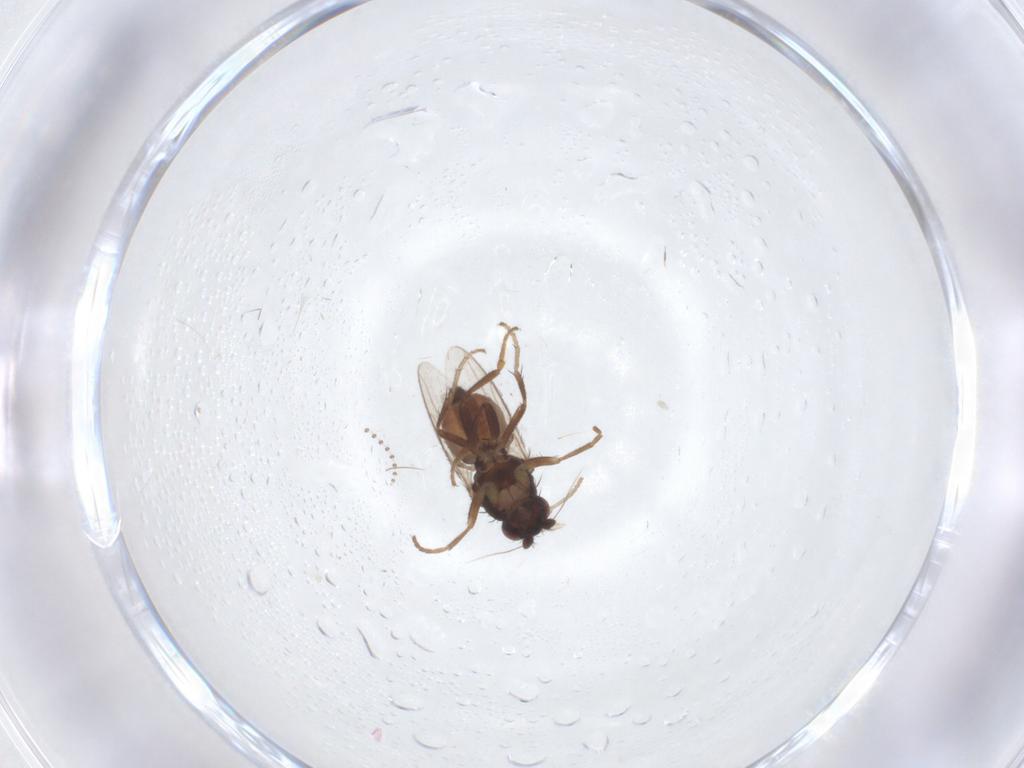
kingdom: Animalia
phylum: Arthropoda
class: Insecta
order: Diptera
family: Sphaeroceridae
